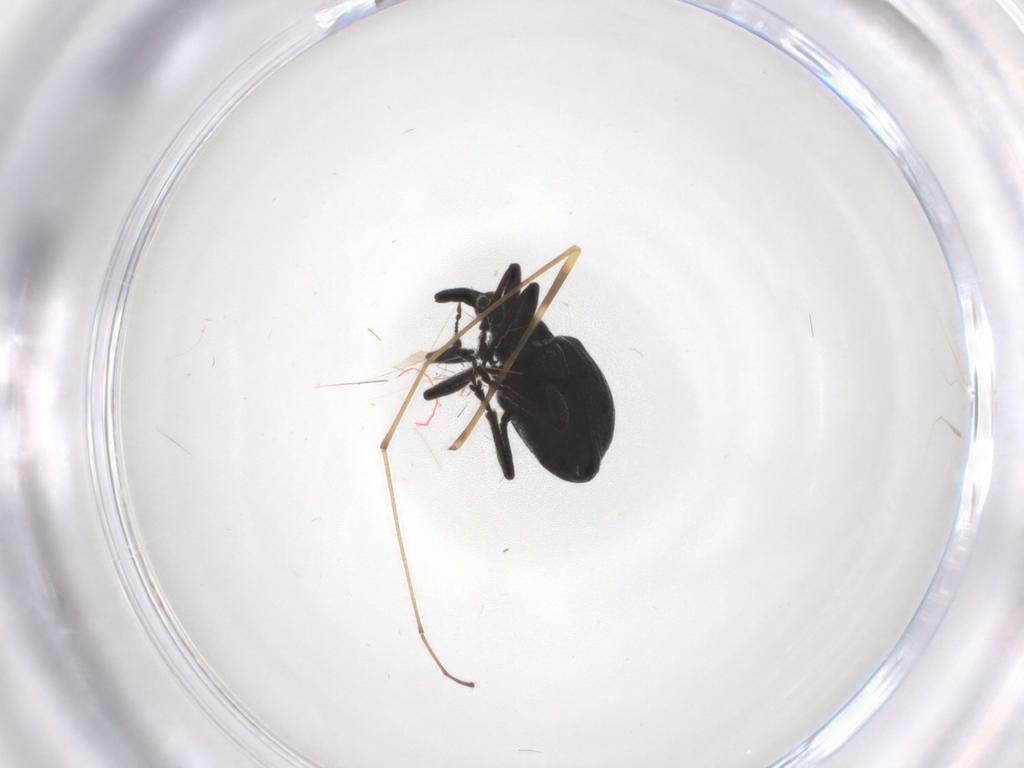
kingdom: Animalia
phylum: Arthropoda
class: Insecta
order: Coleoptera
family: Brentidae
